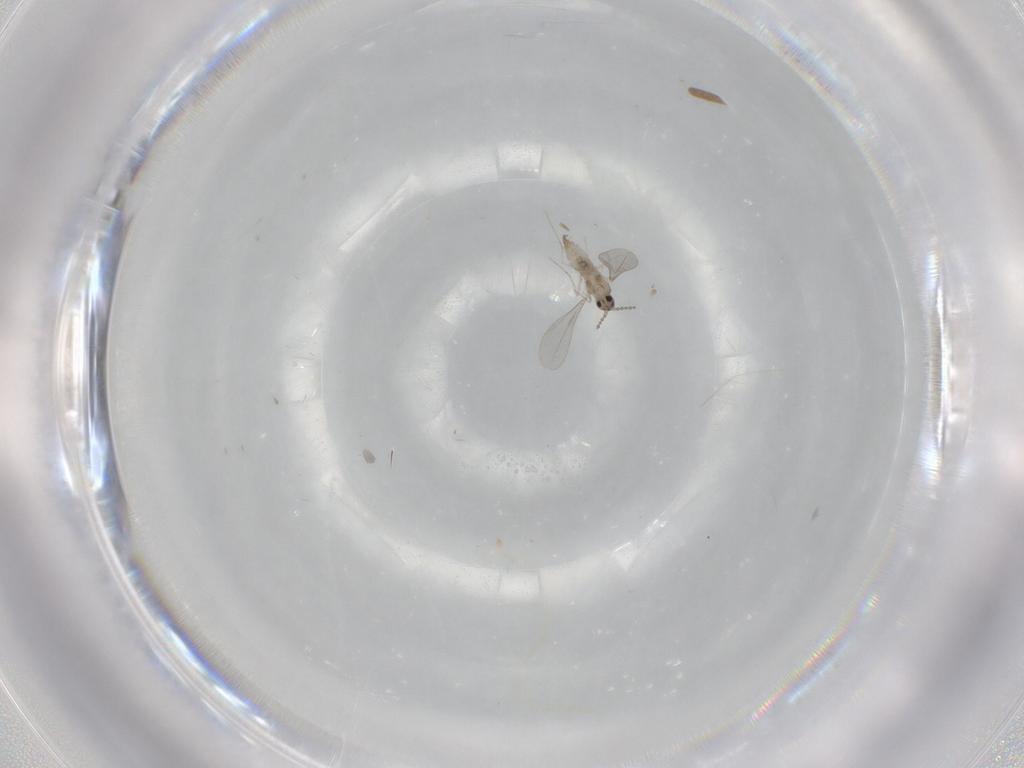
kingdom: Animalia
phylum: Arthropoda
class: Insecta
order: Diptera
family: Cecidomyiidae
